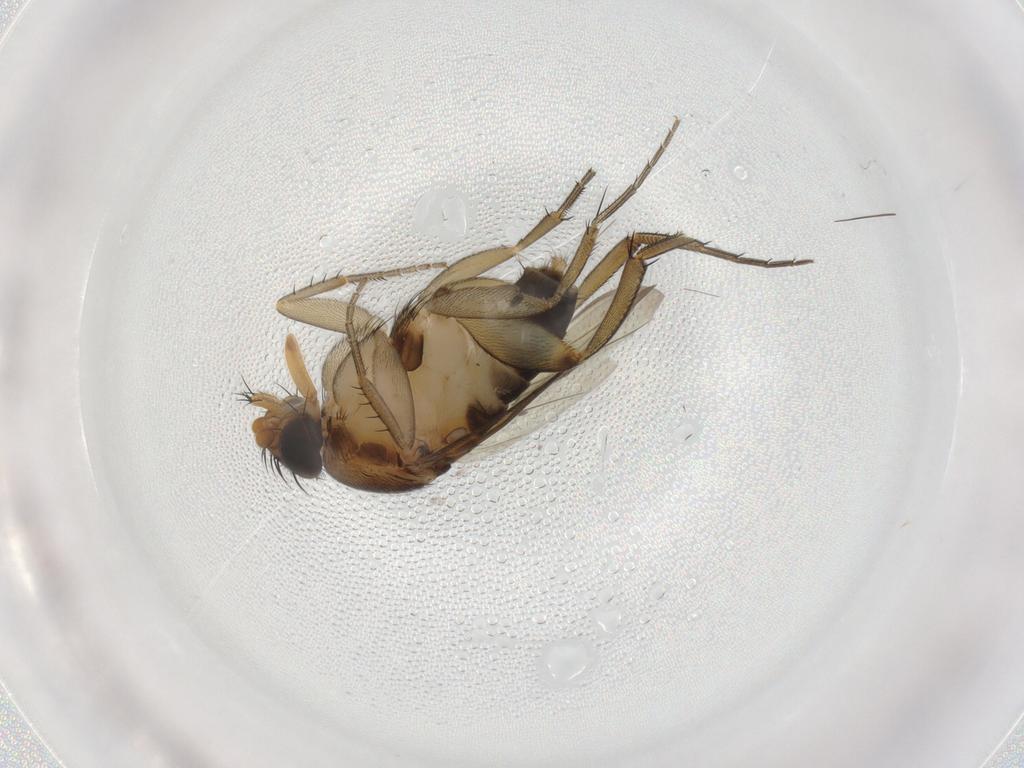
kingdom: Animalia
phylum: Arthropoda
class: Insecta
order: Diptera
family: Phoridae
